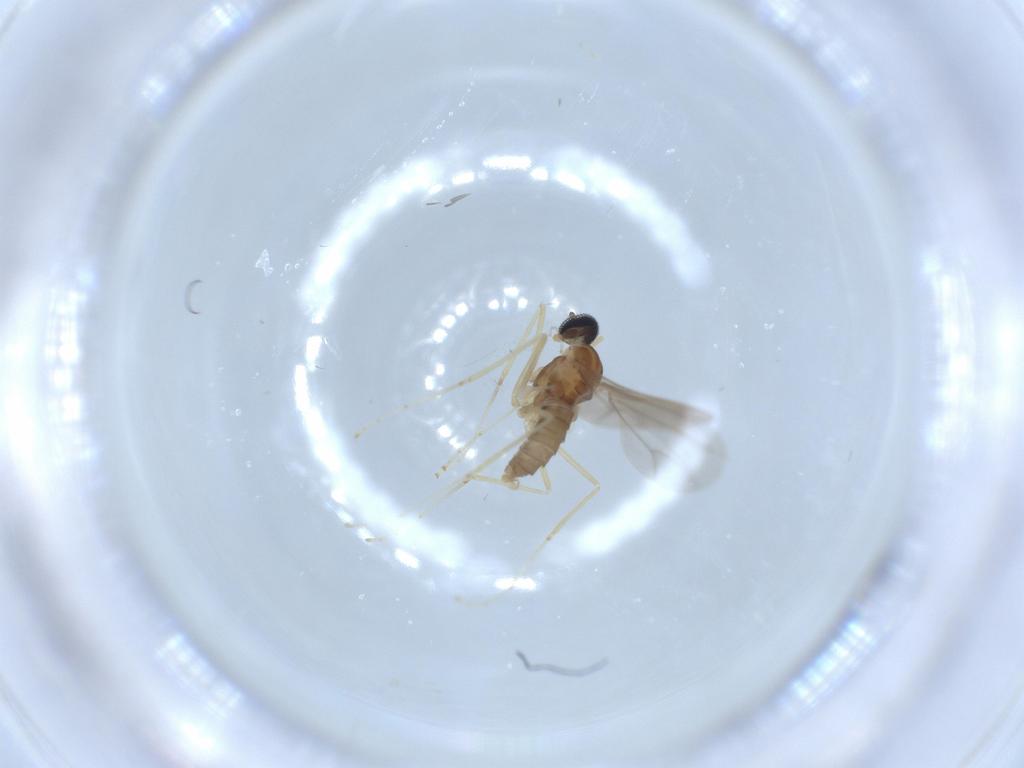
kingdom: Animalia
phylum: Arthropoda
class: Insecta
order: Diptera
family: Cecidomyiidae
